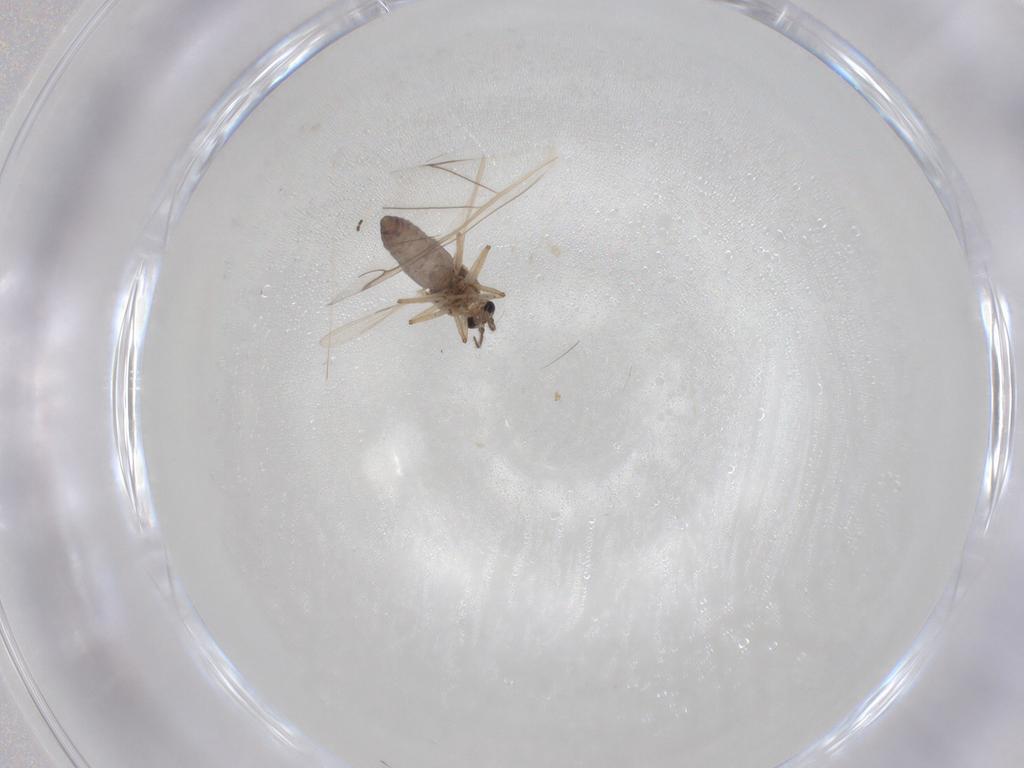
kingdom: Animalia
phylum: Arthropoda
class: Insecta
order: Diptera
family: Ceratopogonidae
